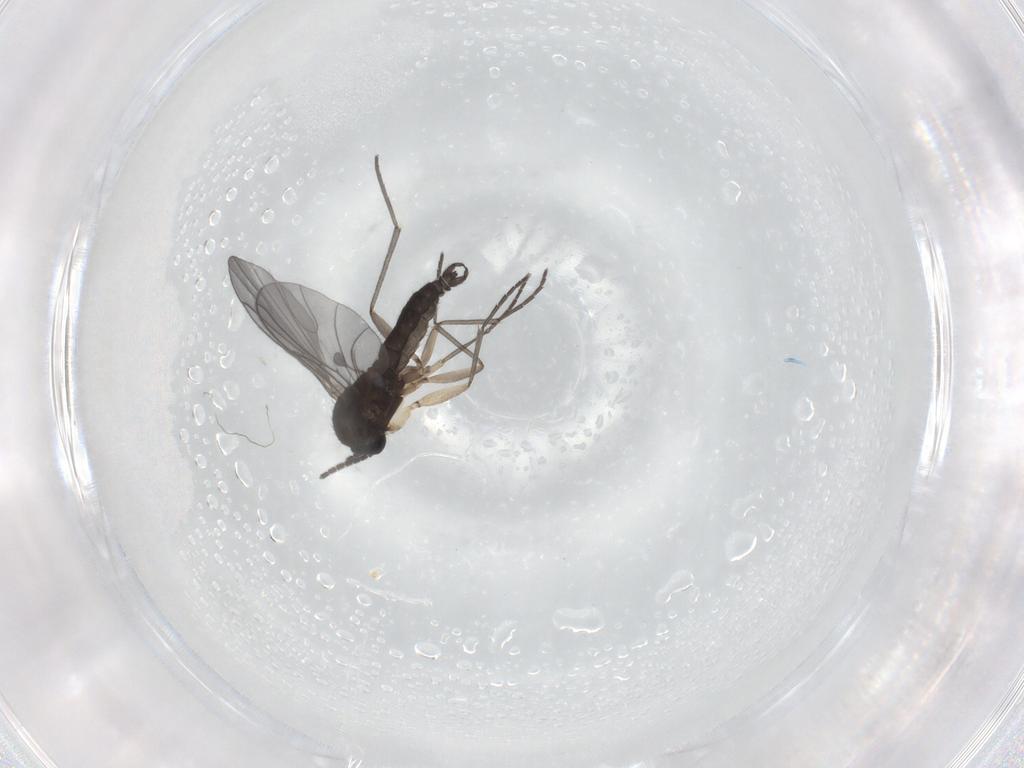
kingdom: Animalia
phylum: Arthropoda
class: Insecta
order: Diptera
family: Sciaridae
